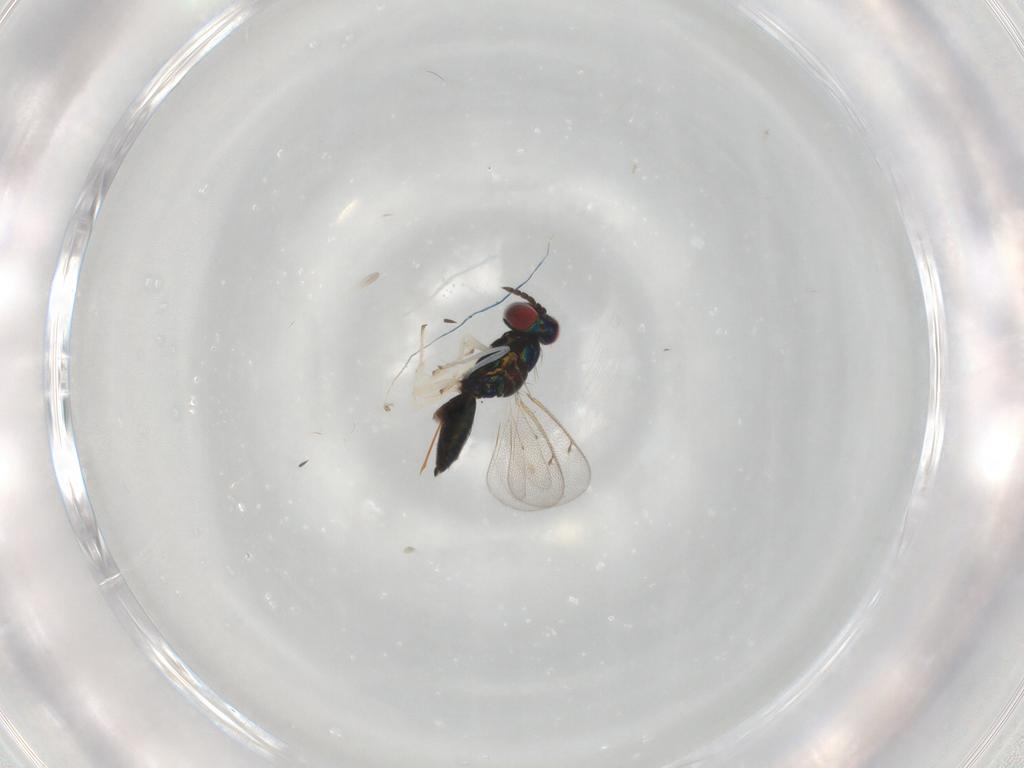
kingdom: Animalia
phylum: Arthropoda
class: Insecta
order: Hymenoptera
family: Eulophidae
